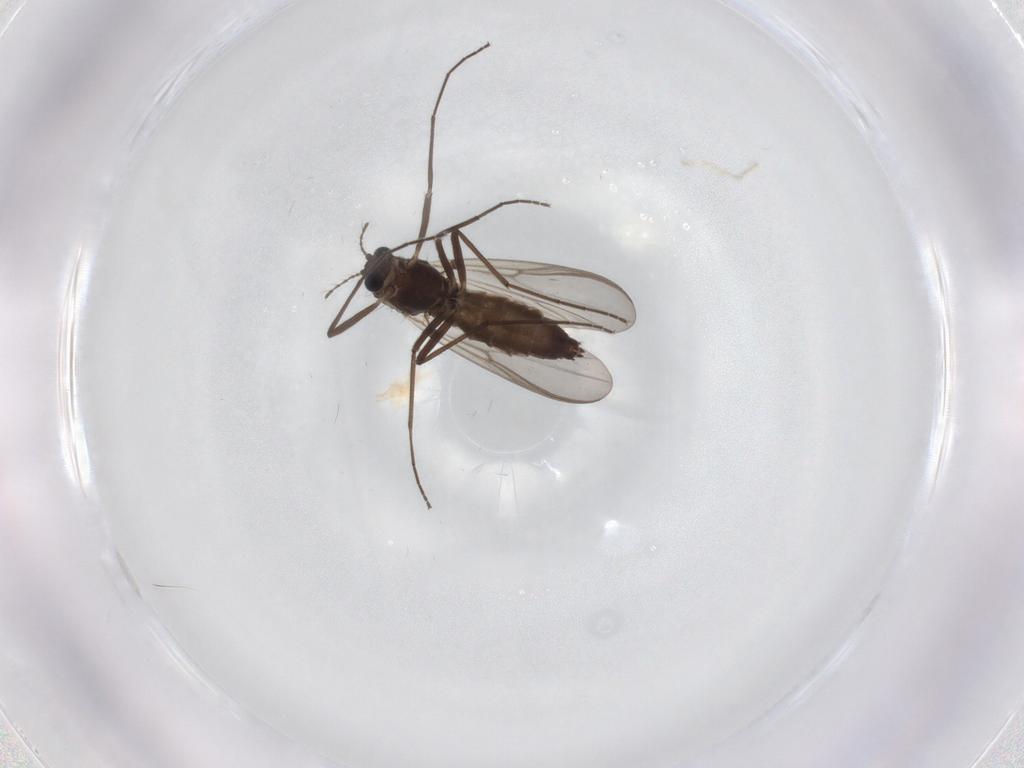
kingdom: Animalia
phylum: Arthropoda
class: Insecta
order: Diptera
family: Chironomidae
